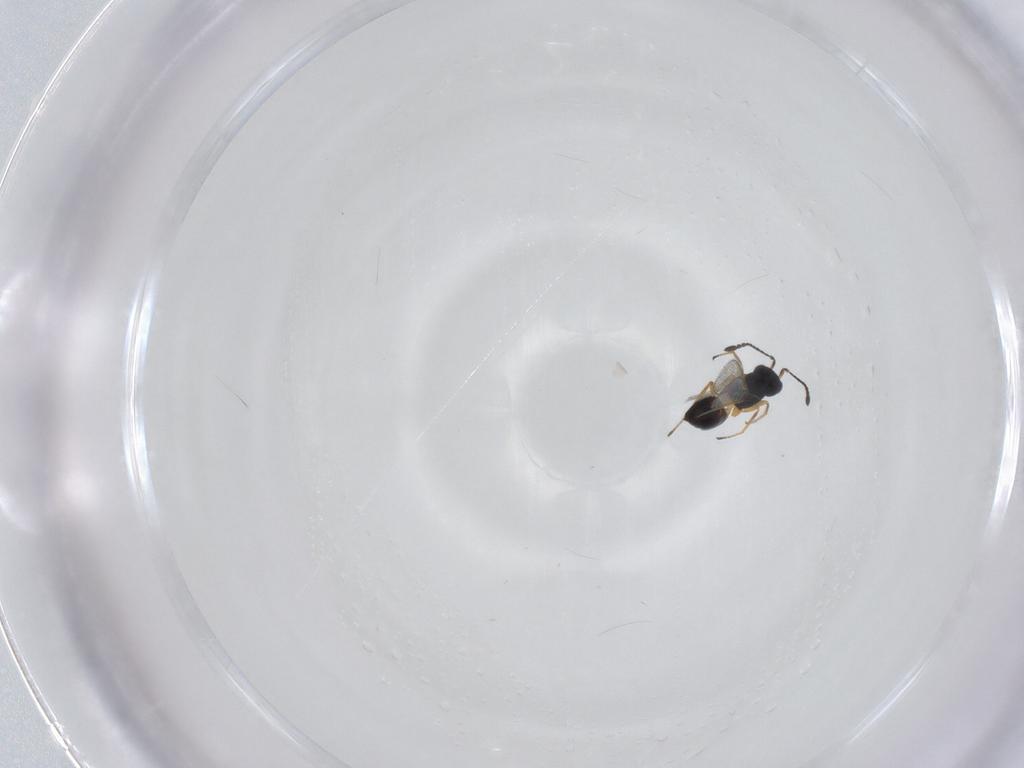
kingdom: Animalia
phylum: Arthropoda
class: Insecta
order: Hymenoptera
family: Mymaridae
